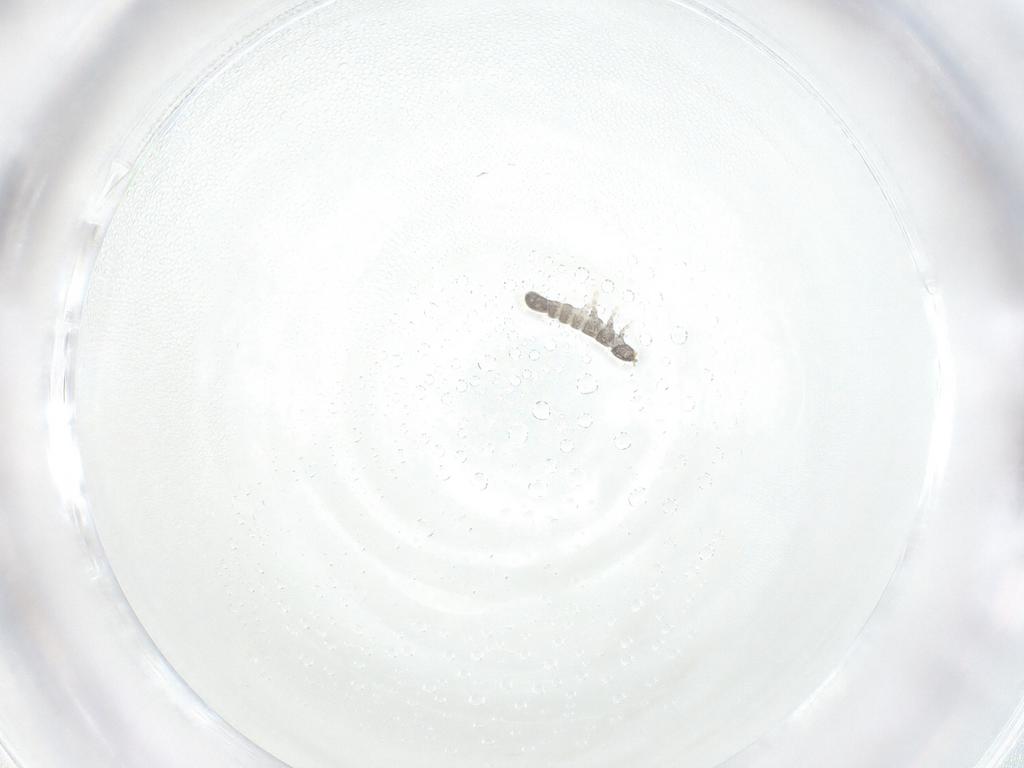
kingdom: Animalia
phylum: Arthropoda
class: Collembola
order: Entomobryomorpha
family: Isotomidae
